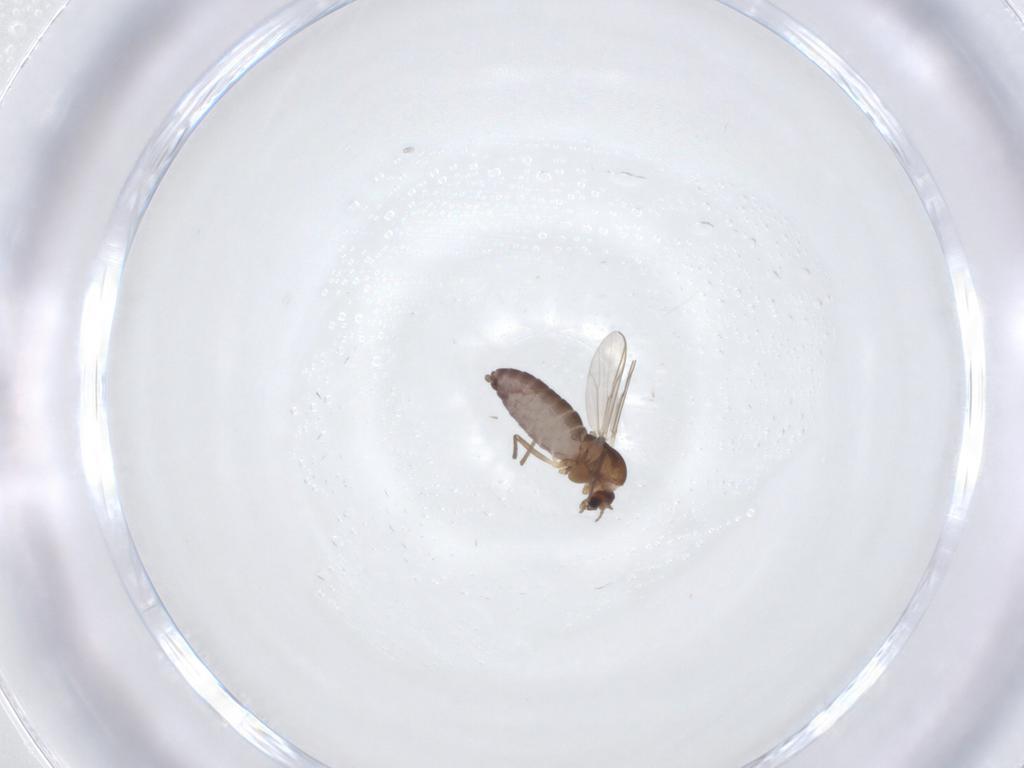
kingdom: Animalia
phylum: Arthropoda
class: Insecta
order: Diptera
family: Chironomidae
